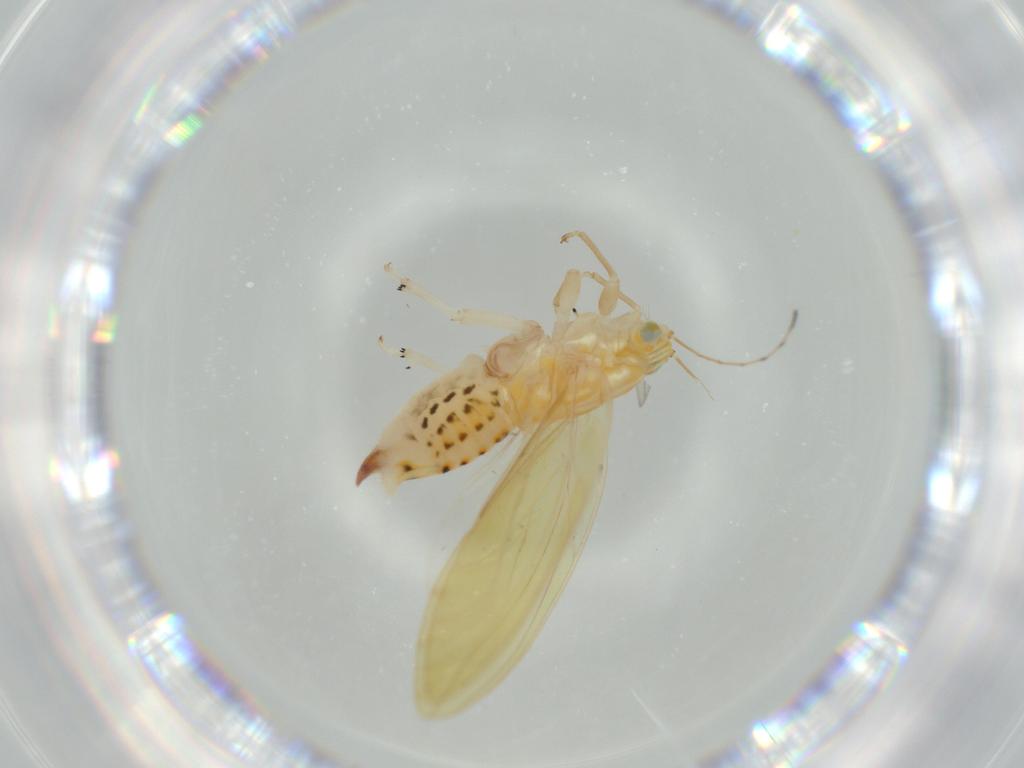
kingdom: Animalia
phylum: Arthropoda
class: Insecta
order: Hemiptera
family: Triozidae
